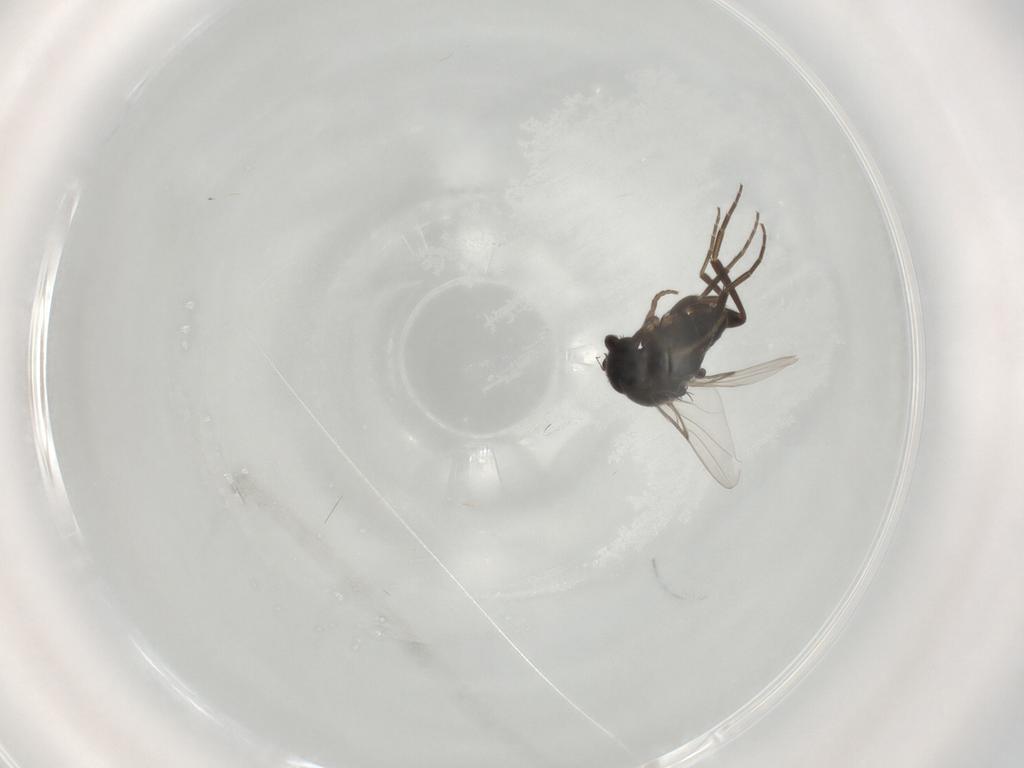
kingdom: Animalia
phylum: Arthropoda
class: Insecta
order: Diptera
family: Phoridae
